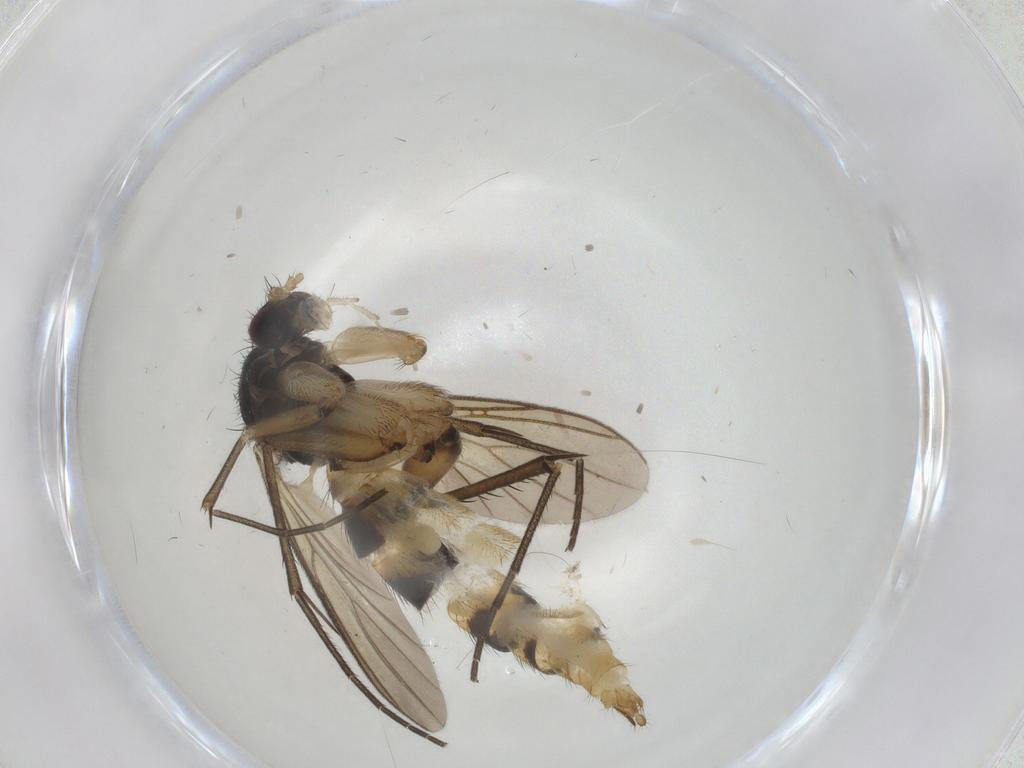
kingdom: Animalia
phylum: Arthropoda
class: Insecta
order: Diptera
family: Mycetophilidae
